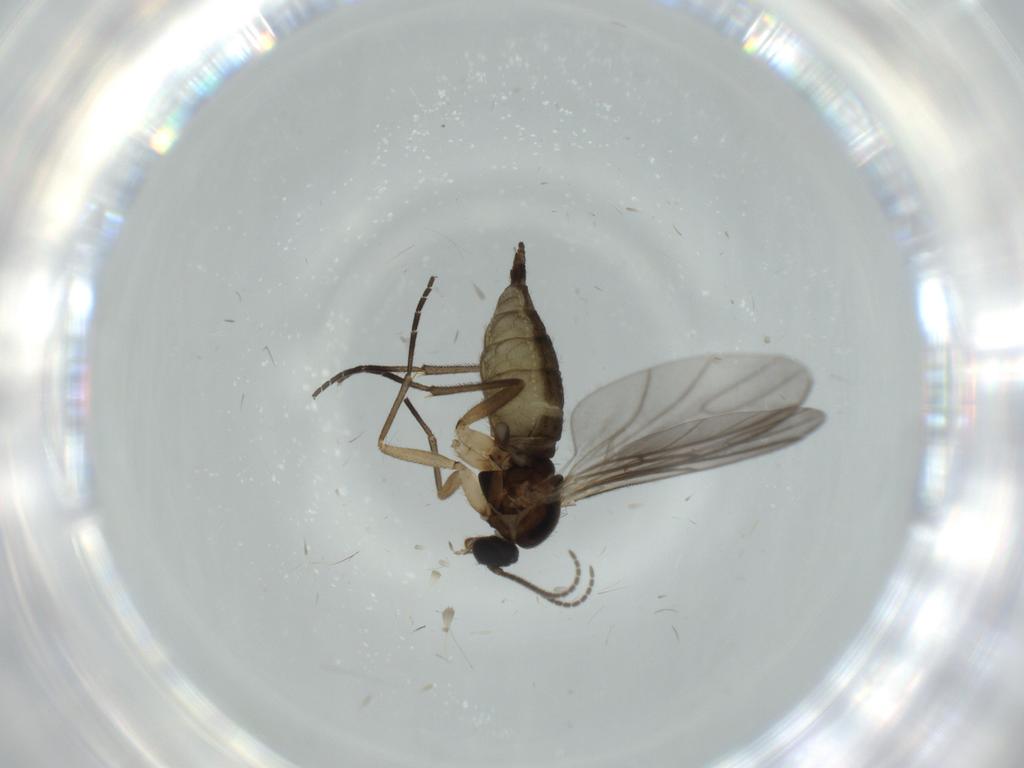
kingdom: Animalia
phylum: Arthropoda
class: Insecta
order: Diptera
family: Sciaridae
